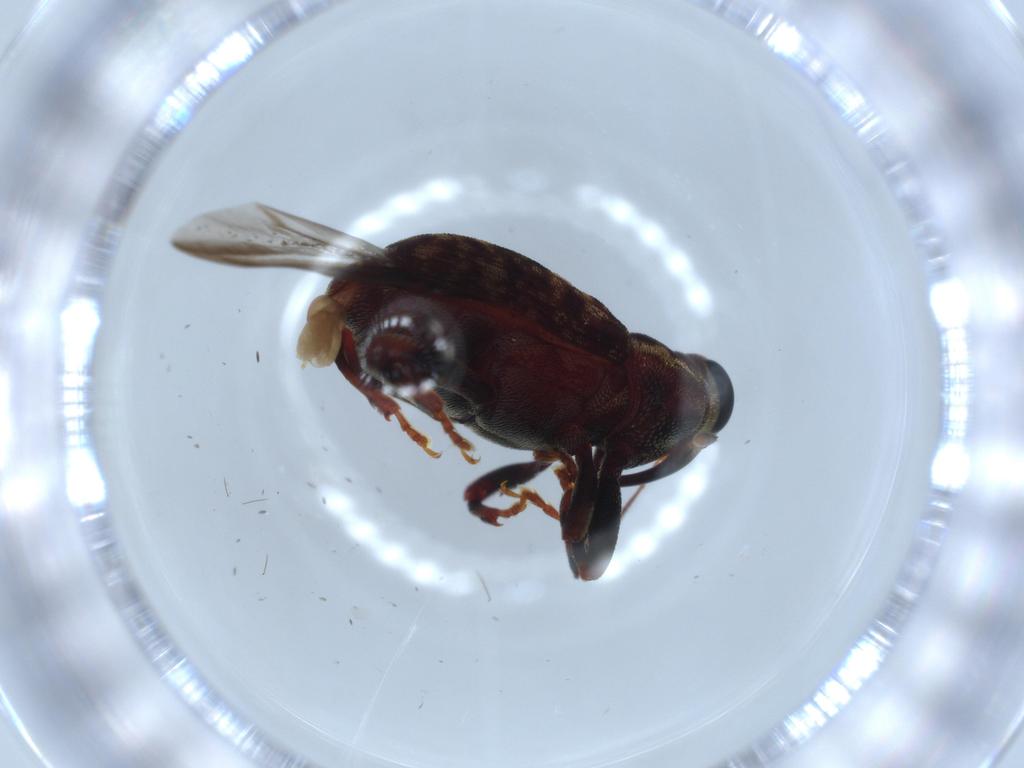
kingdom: Animalia
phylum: Arthropoda
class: Insecta
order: Coleoptera
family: Curculionidae
